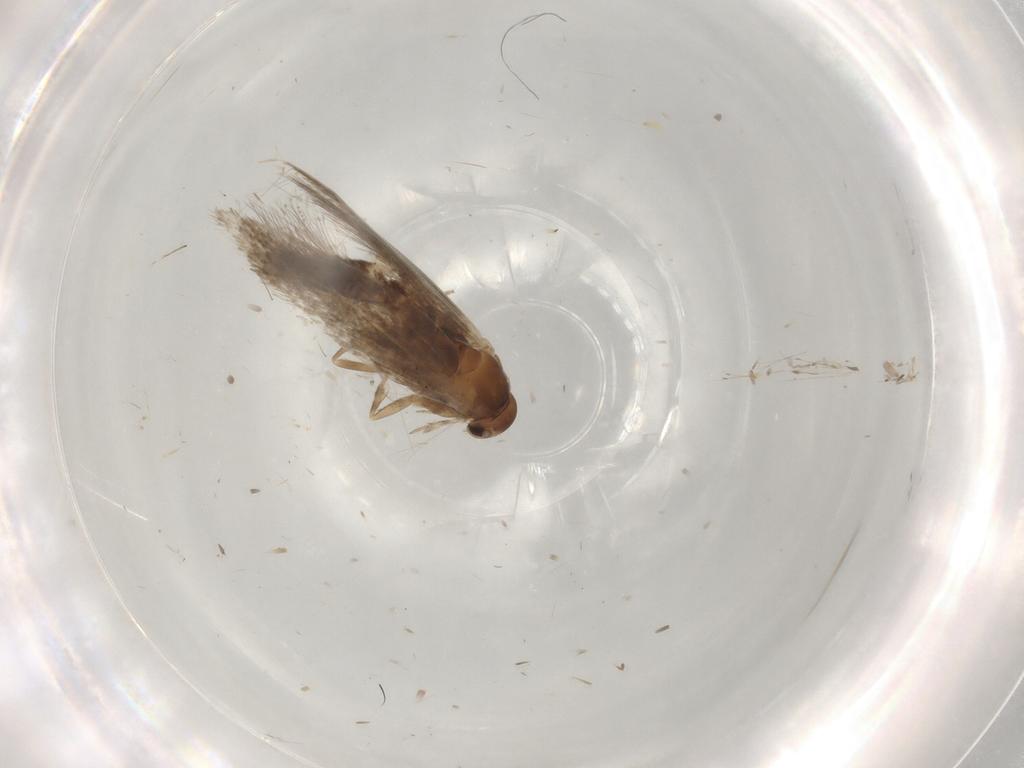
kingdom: Animalia
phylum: Arthropoda
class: Insecta
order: Lepidoptera
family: Elachistidae
